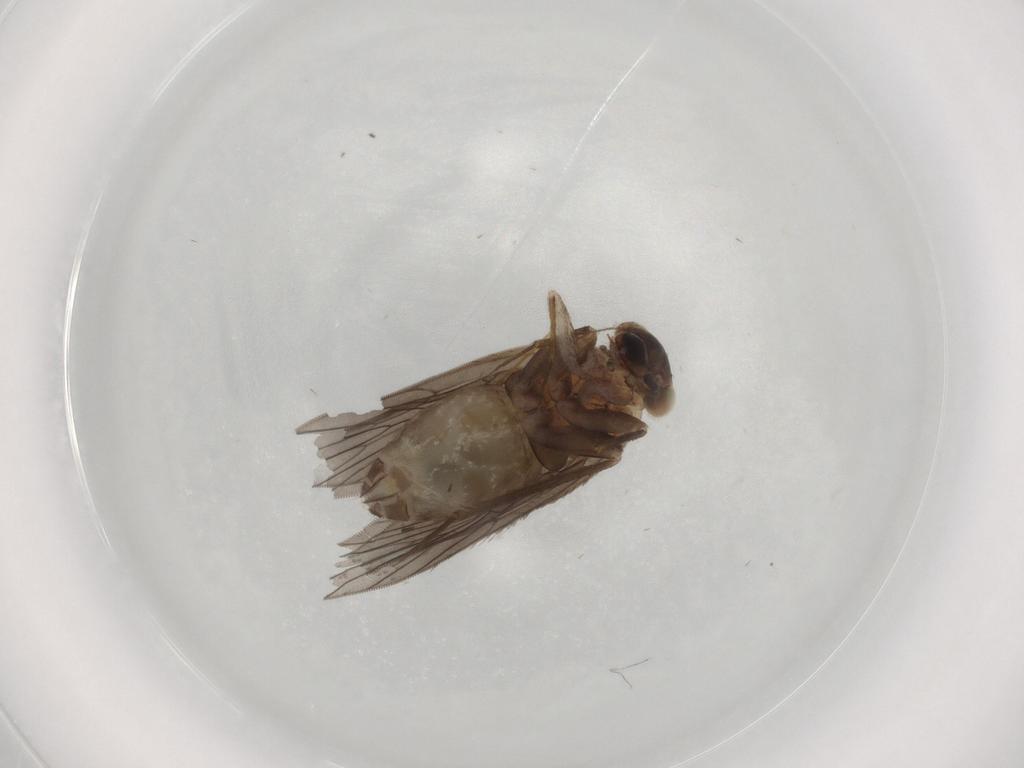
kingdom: Animalia
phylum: Arthropoda
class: Insecta
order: Psocodea
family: Lepidopsocidae
